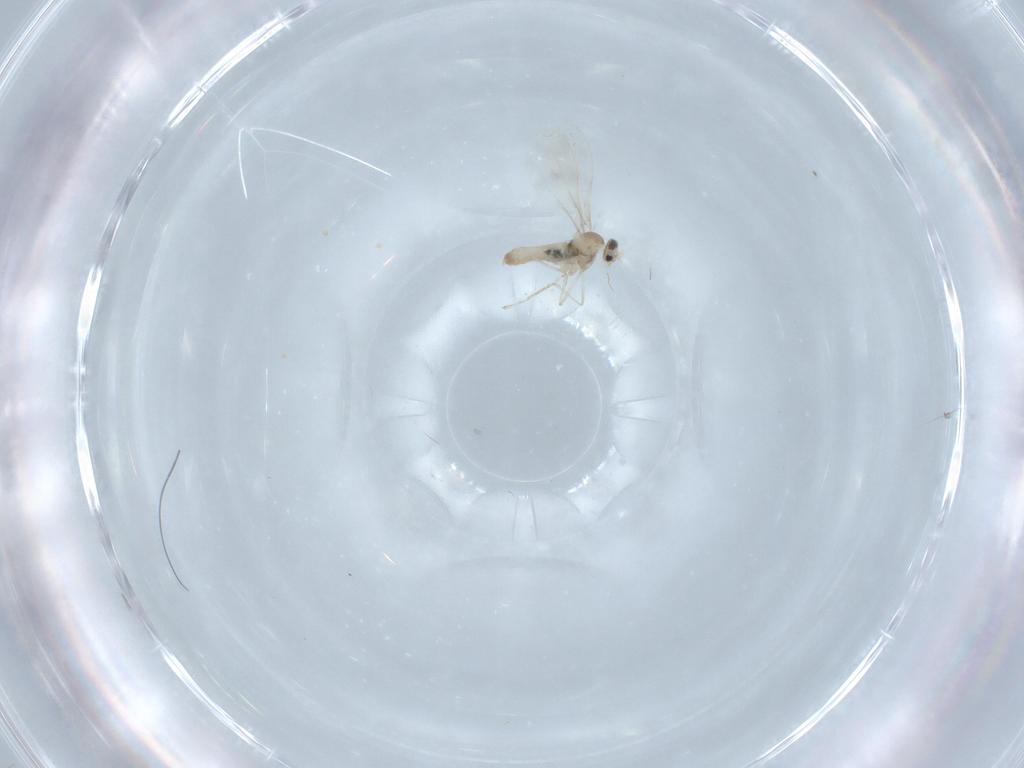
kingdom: Animalia
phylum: Arthropoda
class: Insecta
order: Diptera
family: Cecidomyiidae
